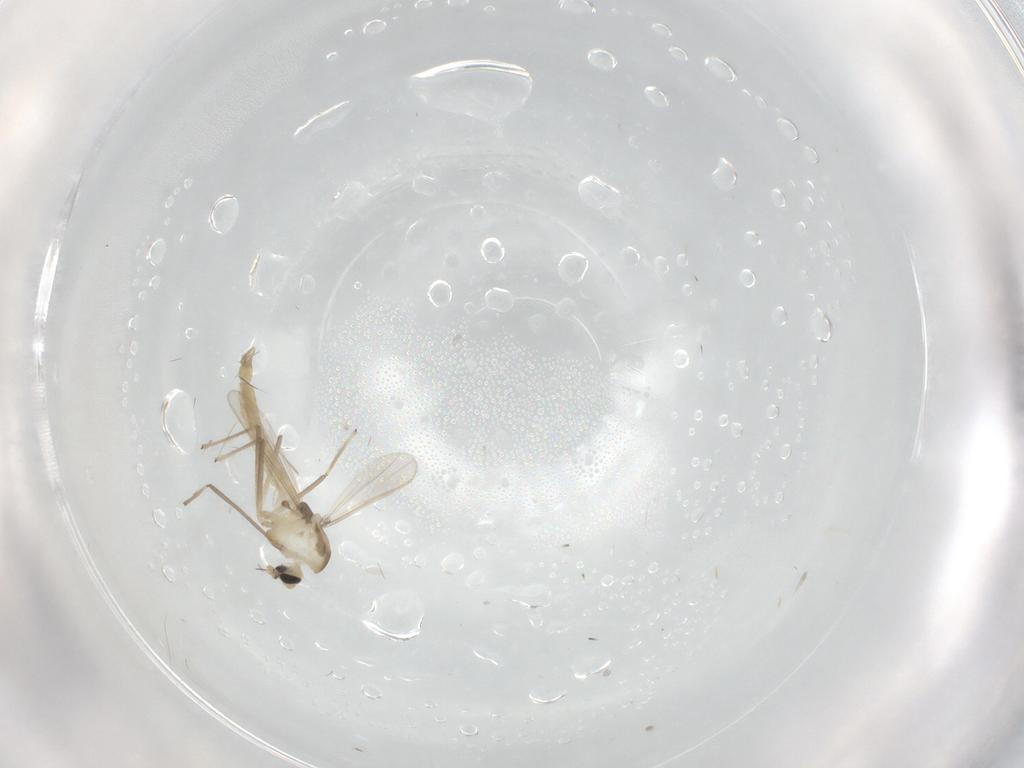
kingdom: Animalia
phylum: Arthropoda
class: Insecta
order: Diptera
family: Chironomidae
